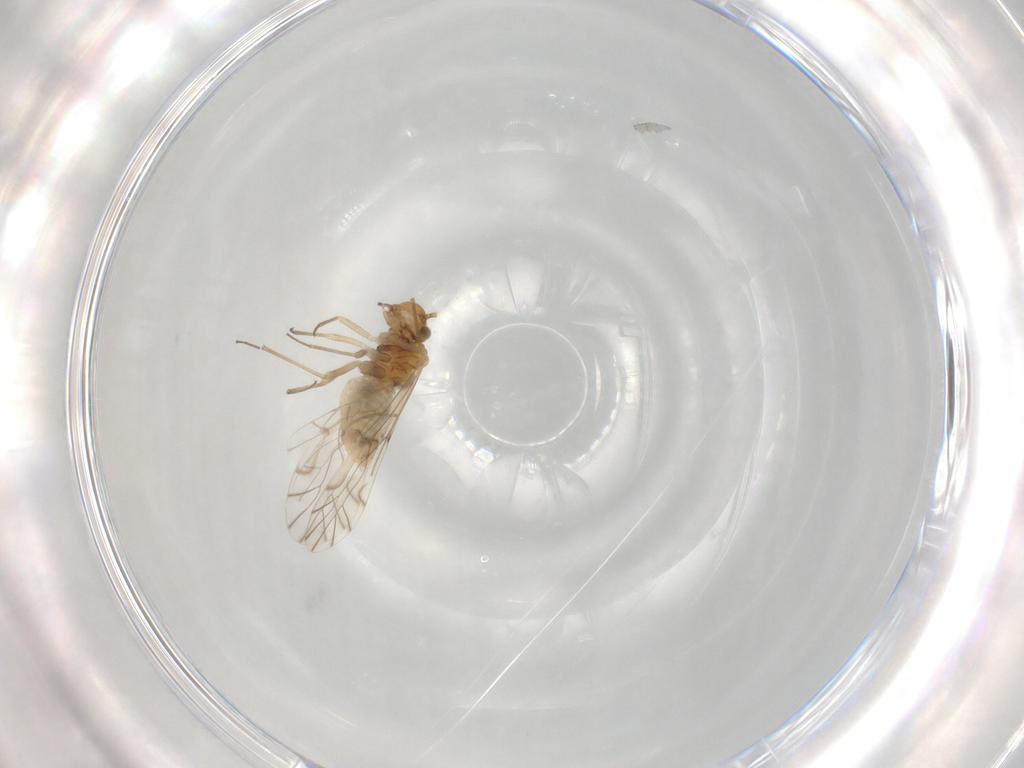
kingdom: Animalia
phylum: Arthropoda
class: Insecta
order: Psocodea
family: Lachesillidae
